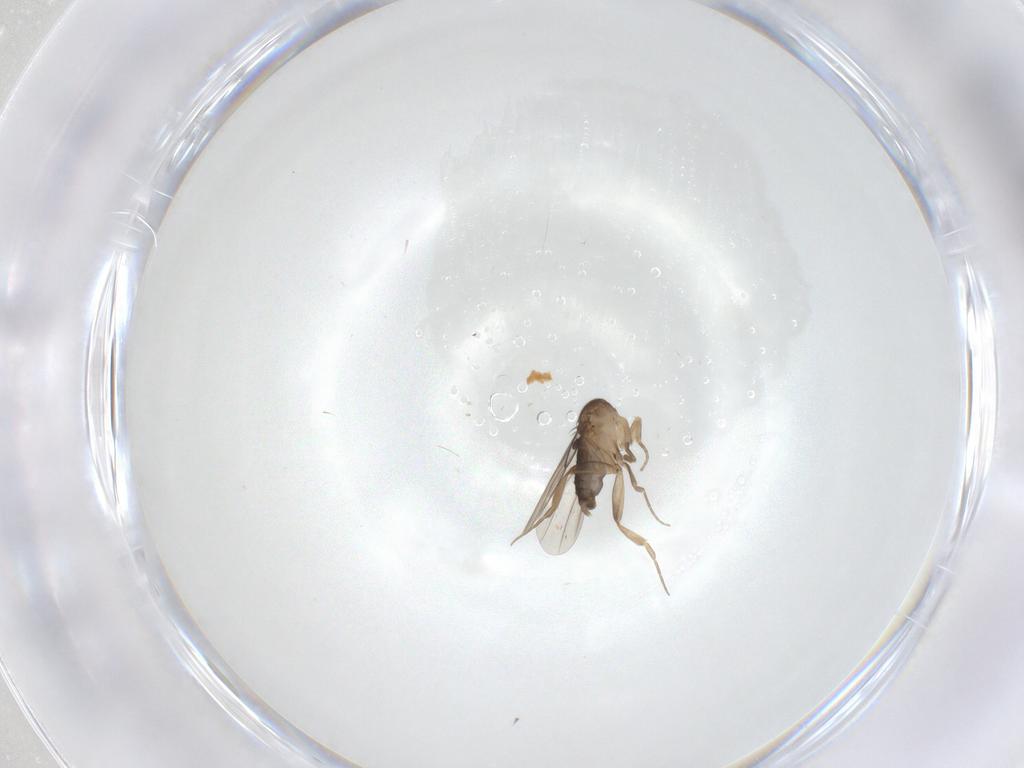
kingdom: Animalia
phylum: Arthropoda
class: Insecta
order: Diptera
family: Phoridae
